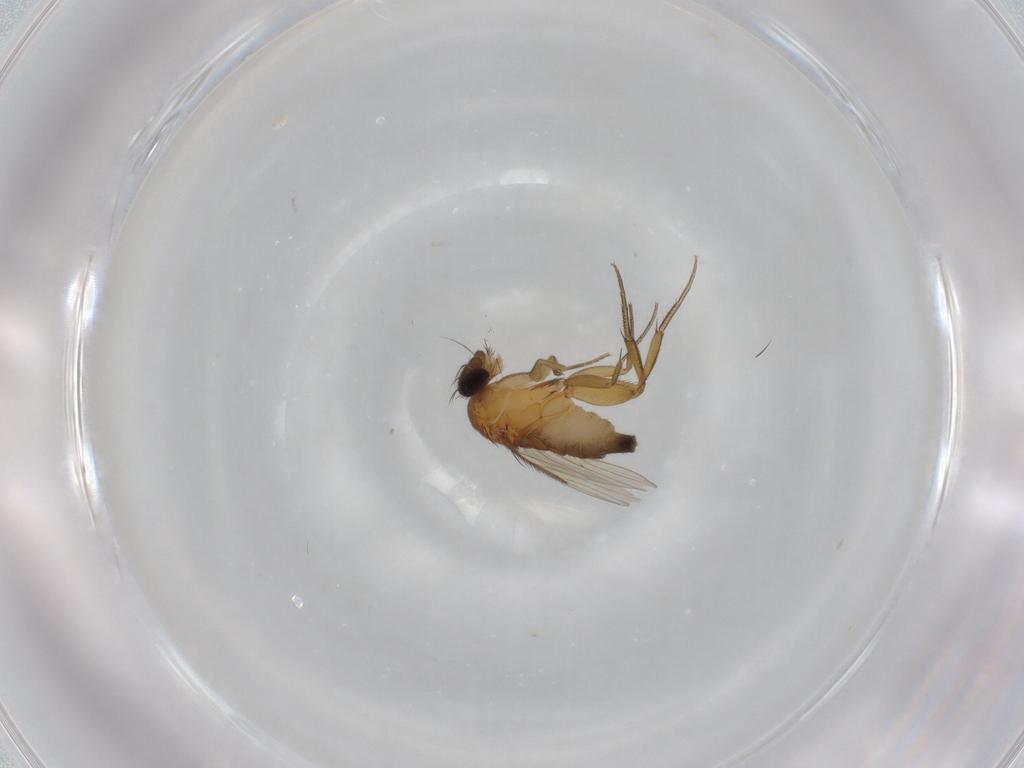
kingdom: Animalia
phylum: Arthropoda
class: Insecta
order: Diptera
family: Phoridae
